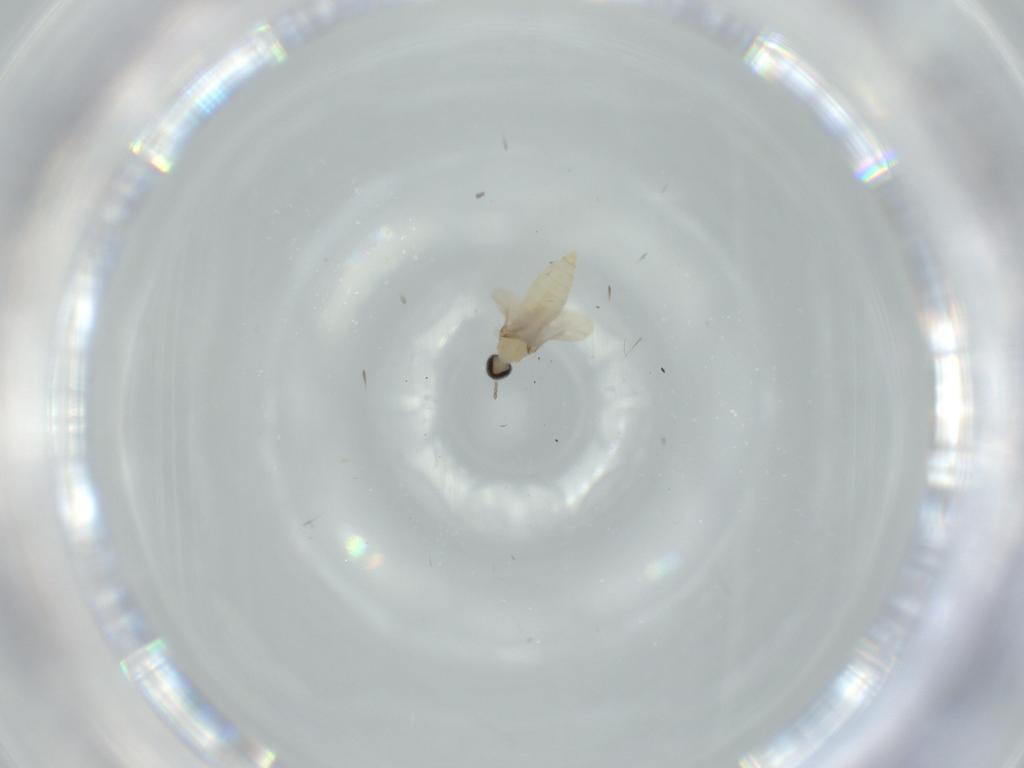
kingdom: Animalia
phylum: Arthropoda
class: Insecta
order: Diptera
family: Cecidomyiidae
